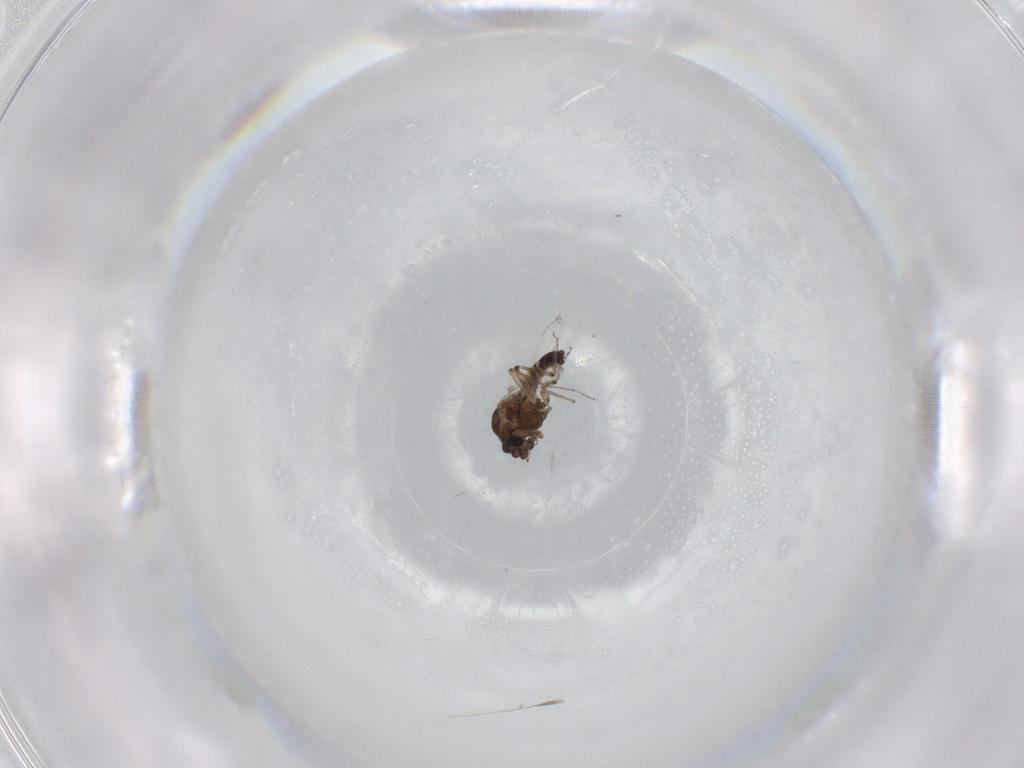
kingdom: Animalia
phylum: Arthropoda
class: Insecta
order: Diptera
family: Ceratopogonidae
